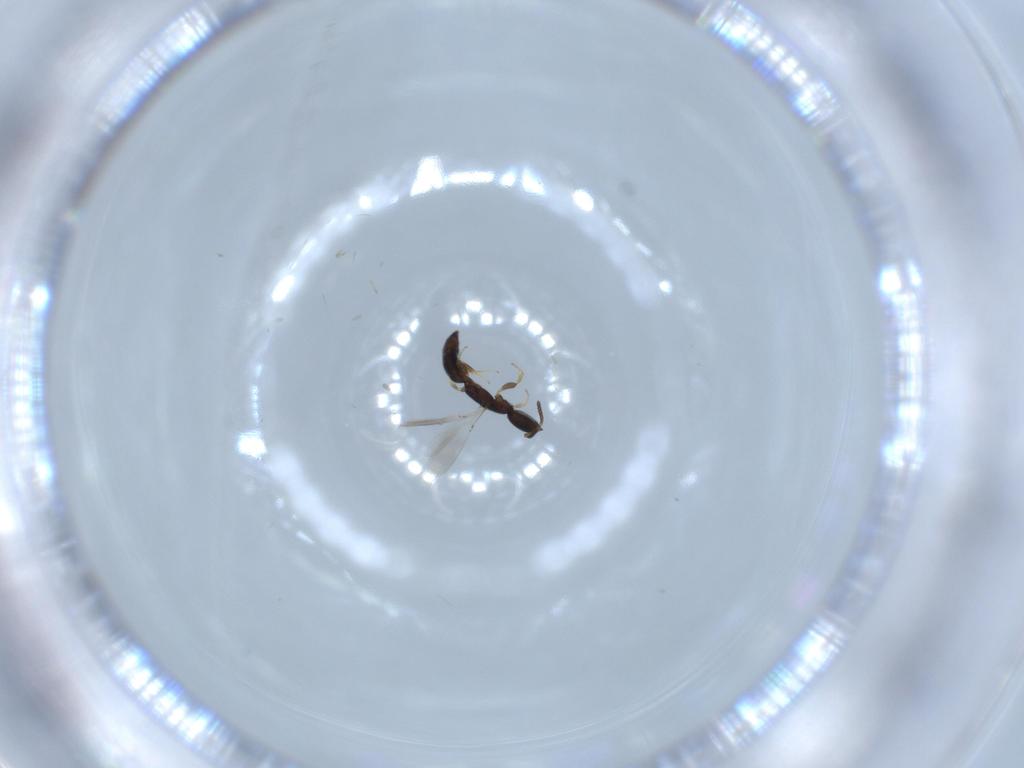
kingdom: Animalia
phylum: Arthropoda
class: Insecta
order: Hymenoptera
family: Bethylidae
